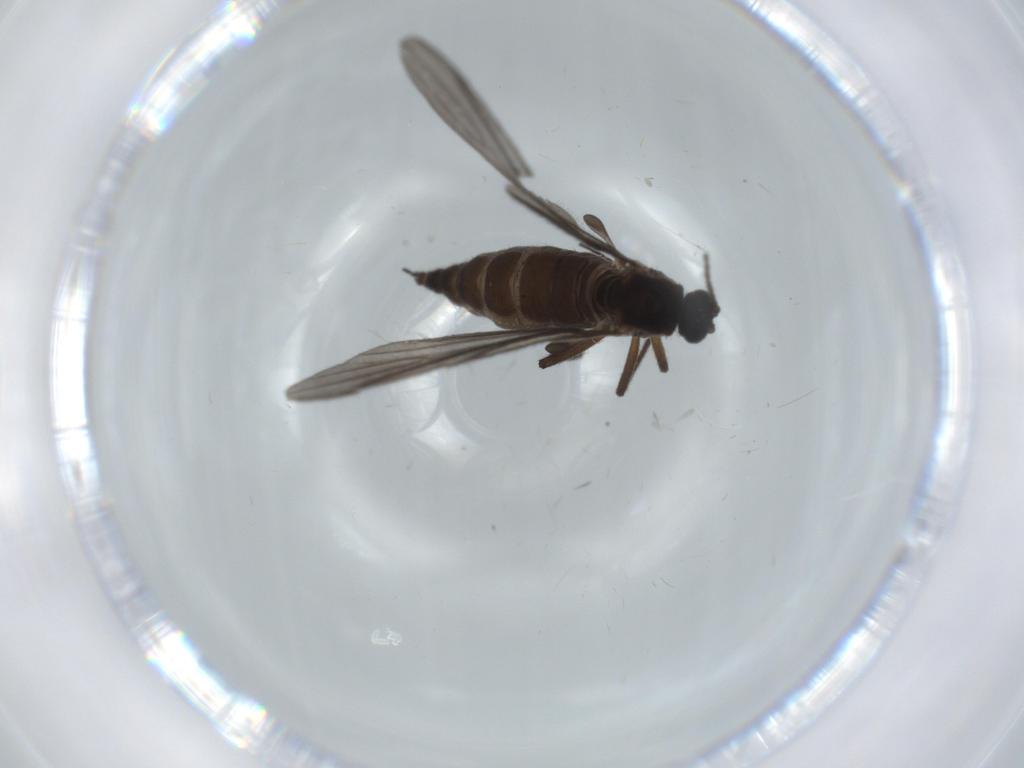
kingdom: Animalia
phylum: Arthropoda
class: Insecta
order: Diptera
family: Sciaridae
